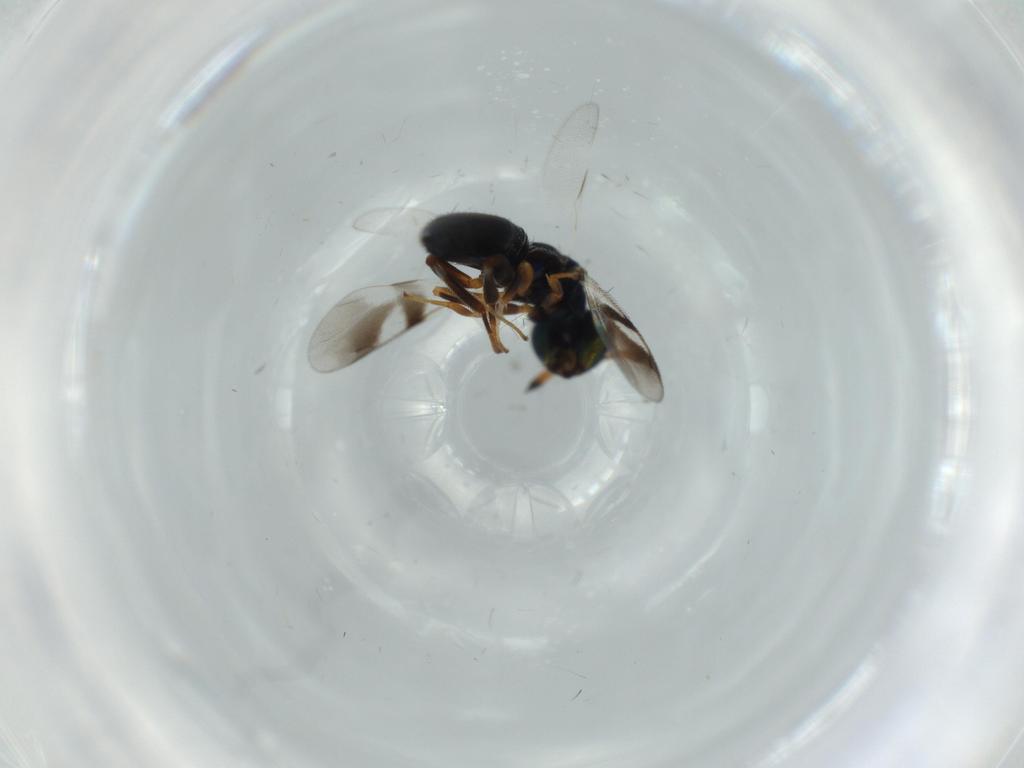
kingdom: Animalia
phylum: Arthropoda
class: Insecta
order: Hymenoptera
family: Cleonyminae
